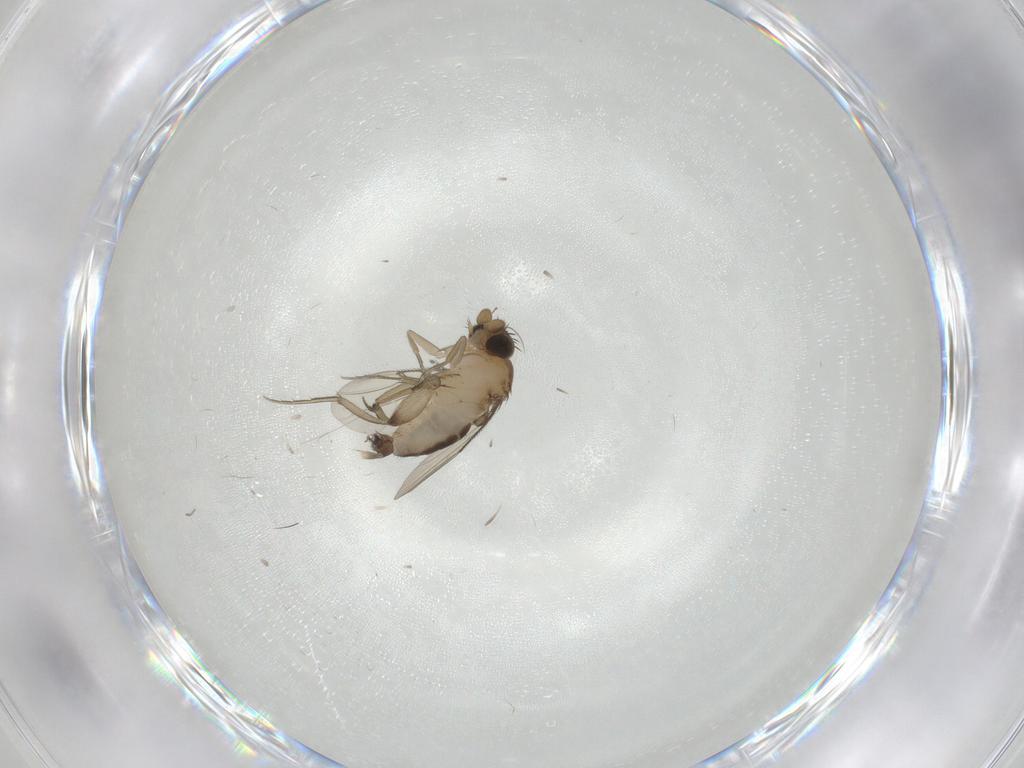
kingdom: Animalia
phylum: Arthropoda
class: Insecta
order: Diptera
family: Phoridae
